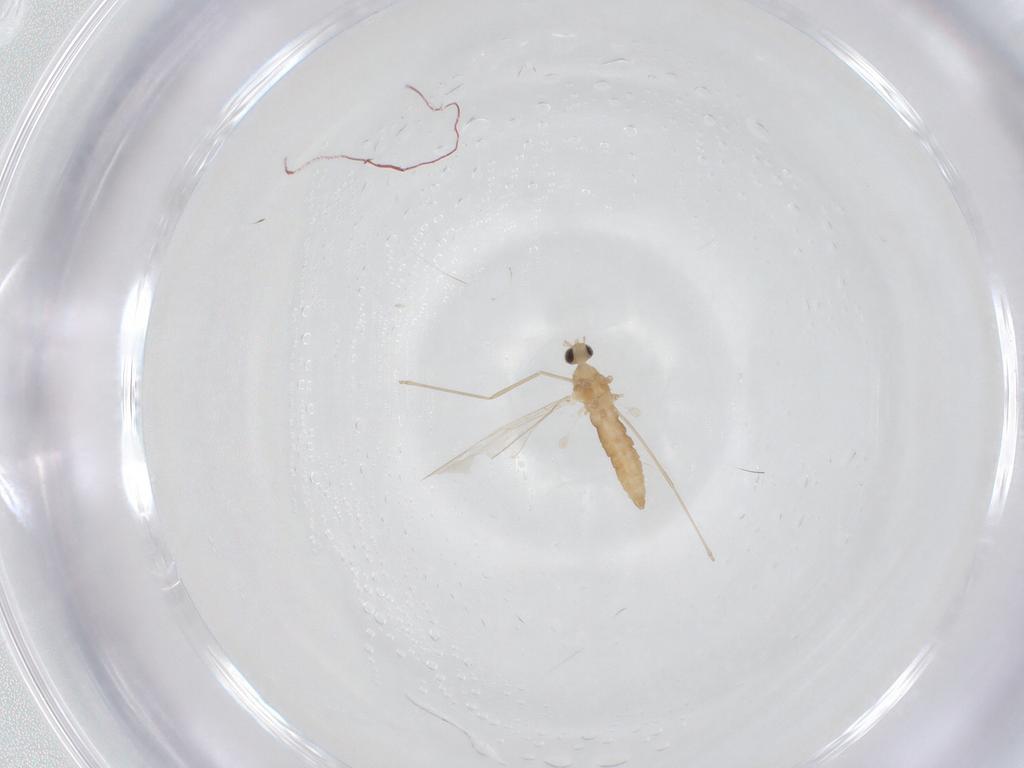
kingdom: Animalia
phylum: Arthropoda
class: Insecta
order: Diptera
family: Cecidomyiidae
